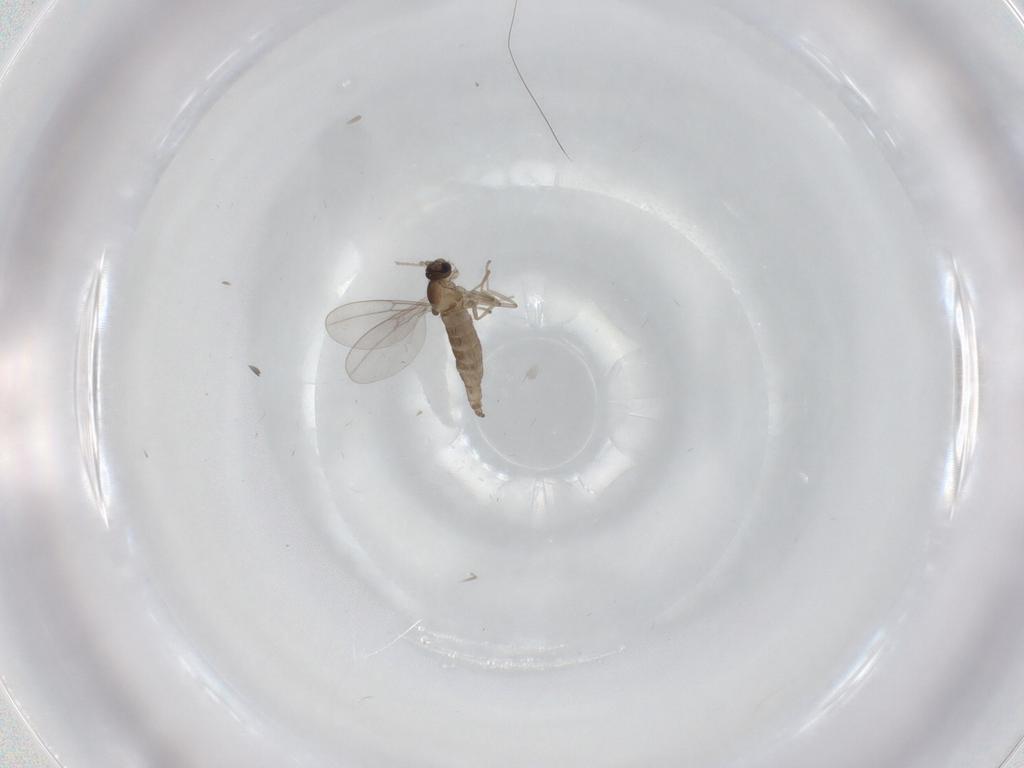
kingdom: Animalia
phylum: Arthropoda
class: Insecta
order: Diptera
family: Cecidomyiidae
